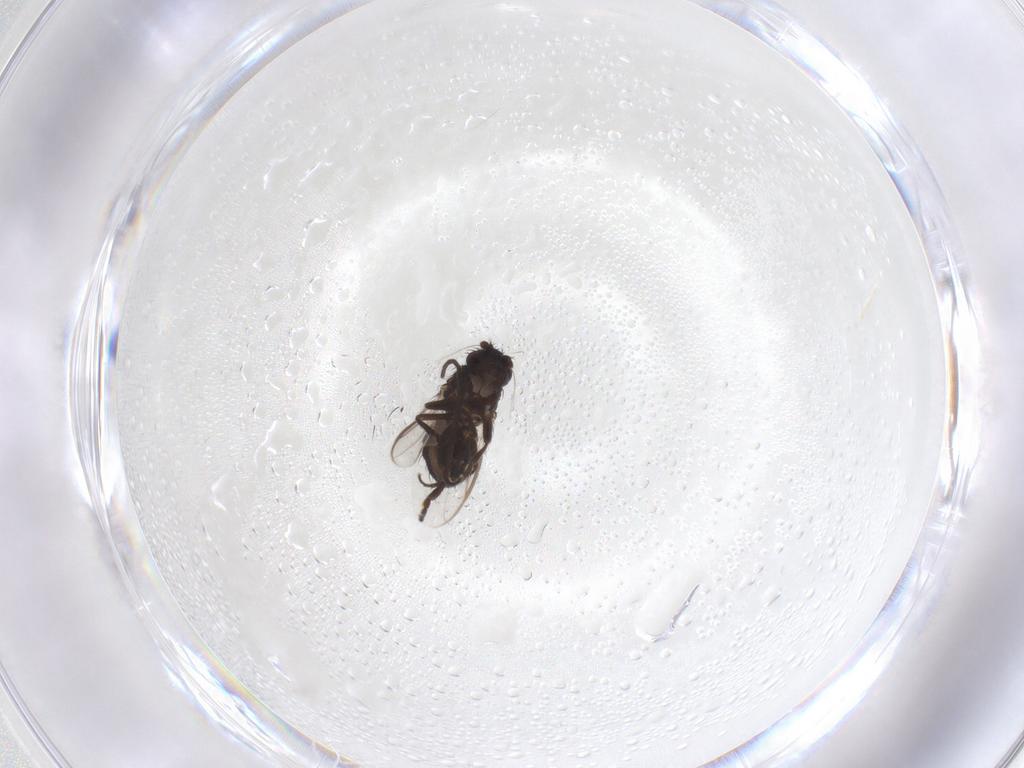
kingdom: Animalia
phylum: Arthropoda
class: Insecta
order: Diptera
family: Sphaeroceridae
